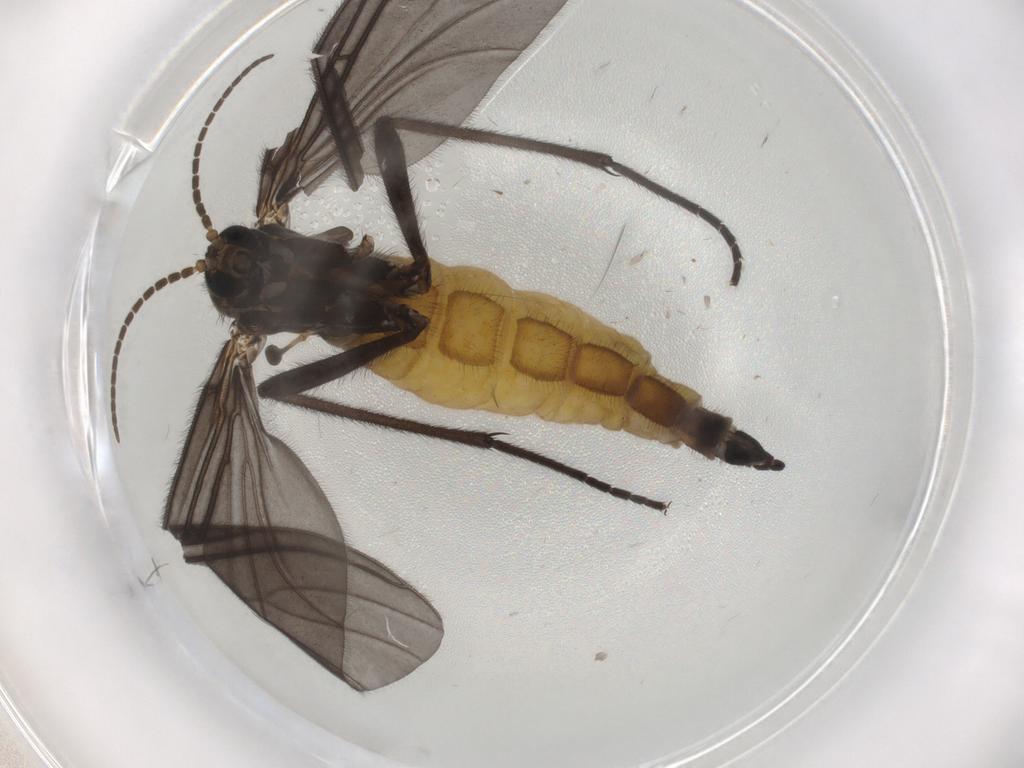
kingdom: Animalia
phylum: Arthropoda
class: Insecta
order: Diptera
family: Sciaridae
